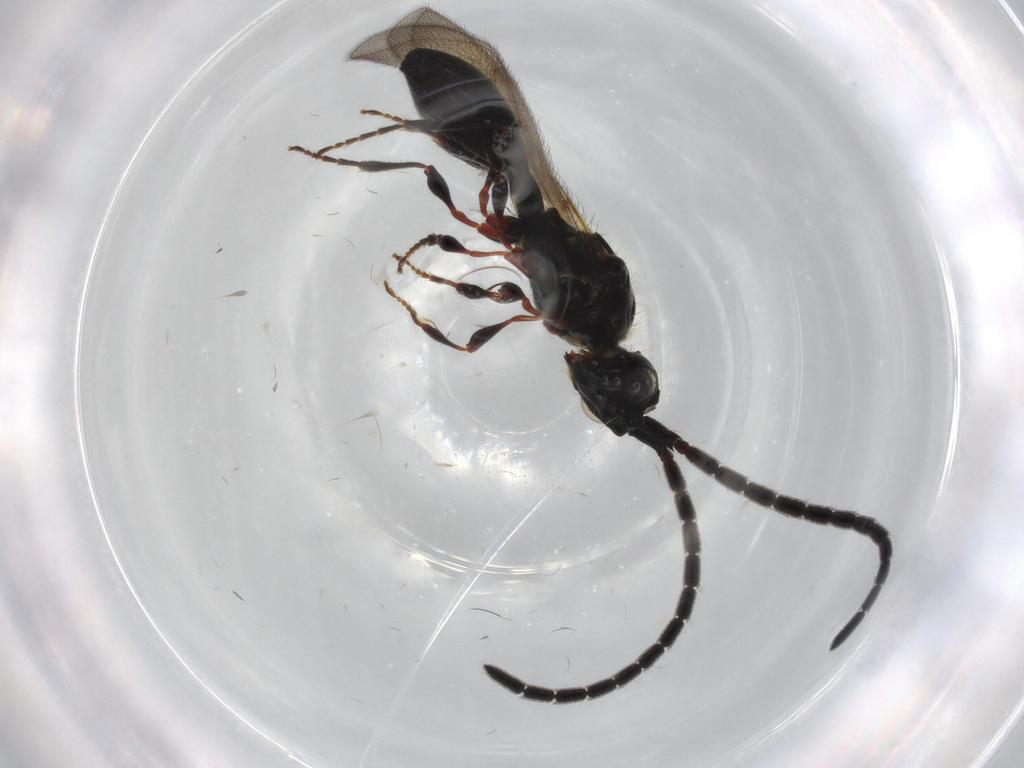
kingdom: Animalia
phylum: Arthropoda
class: Insecta
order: Hymenoptera
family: Diapriidae
